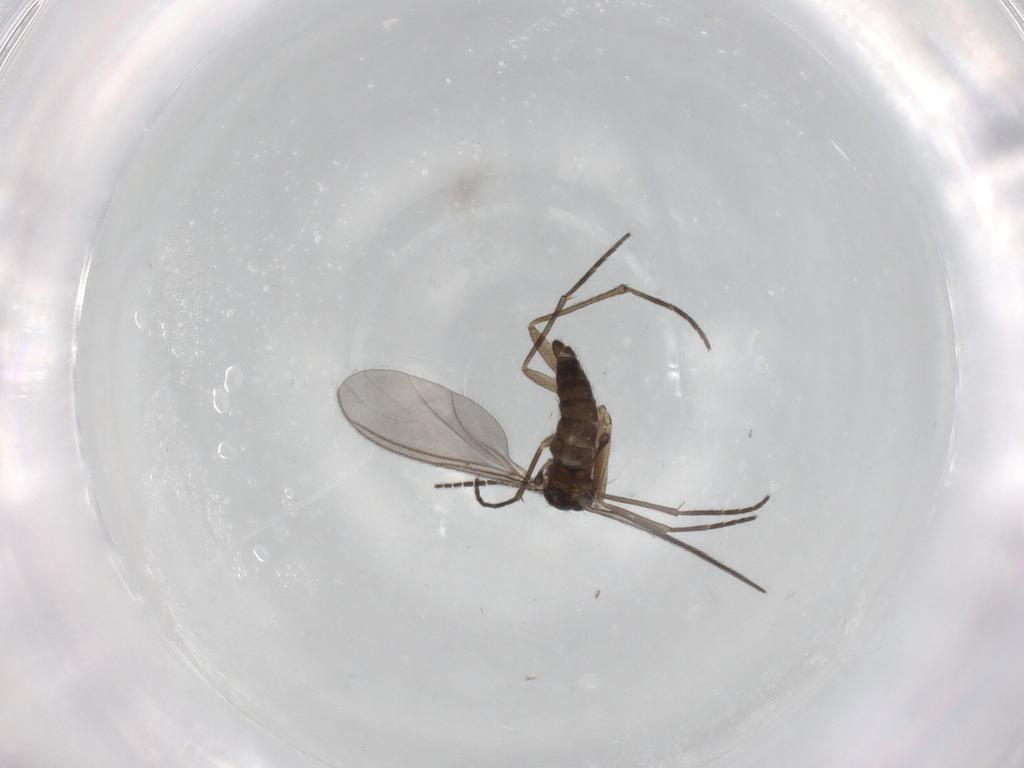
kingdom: Animalia
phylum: Arthropoda
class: Insecta
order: Diptera
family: Sciaridae
